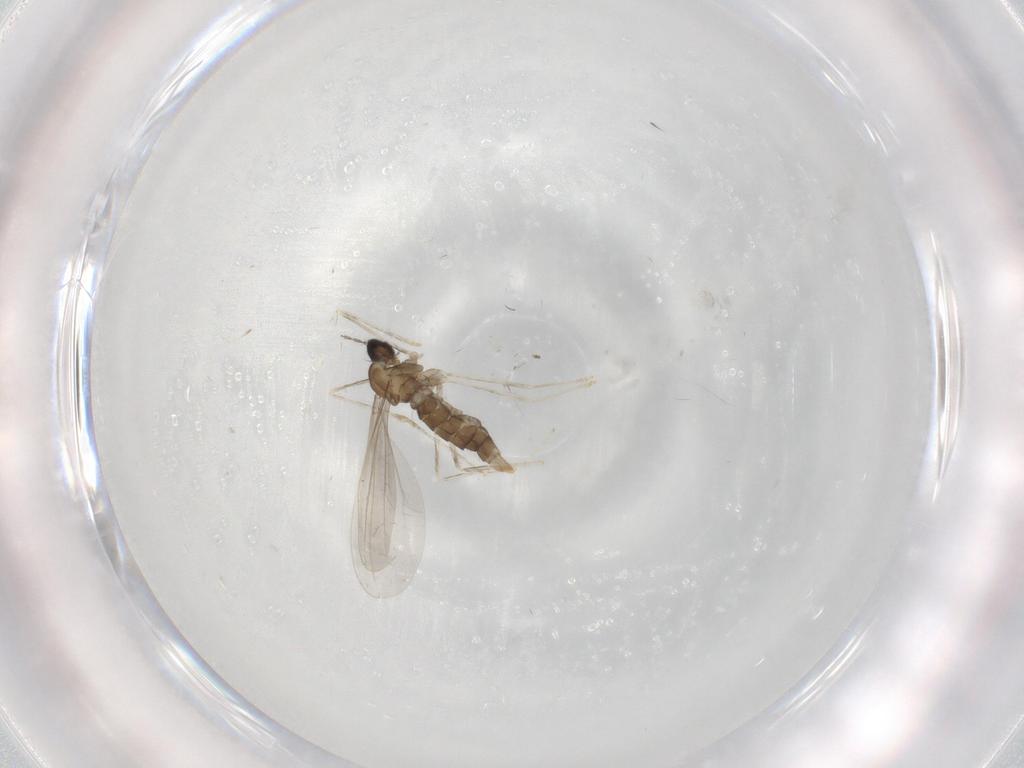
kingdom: Animalia
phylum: Arthropoda
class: Insecta
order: Diptera
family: Cecidomyiidae
